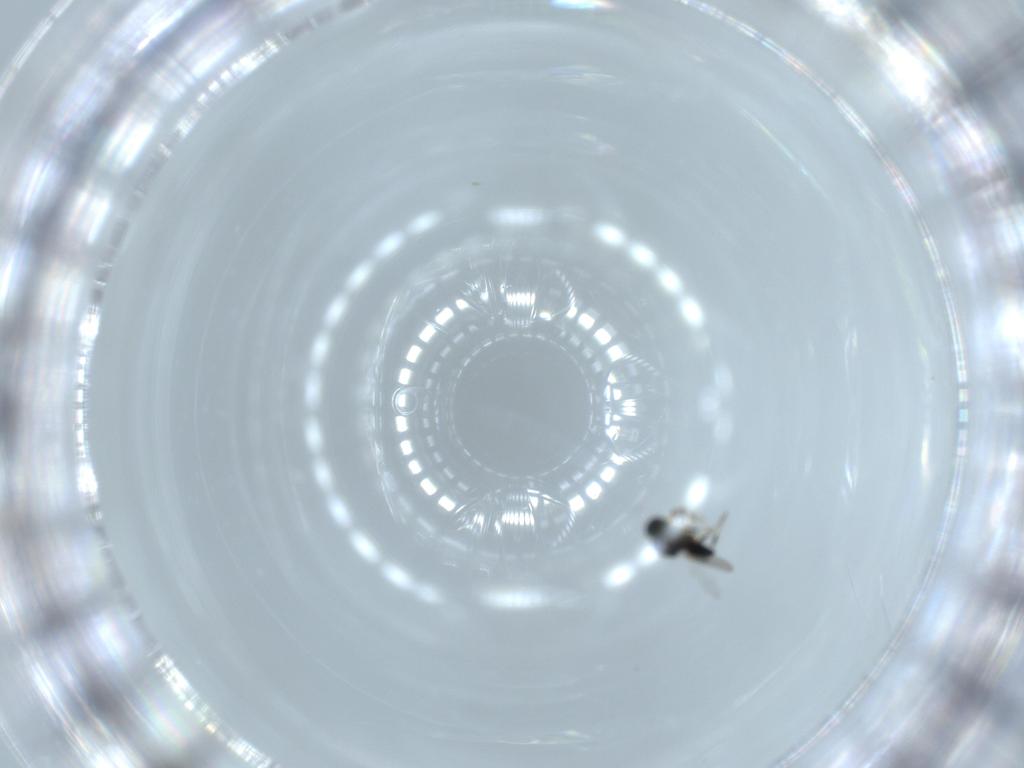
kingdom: Animalia
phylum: Arthropoda
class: Insecta
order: Hymenoptera
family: Platygastridae
